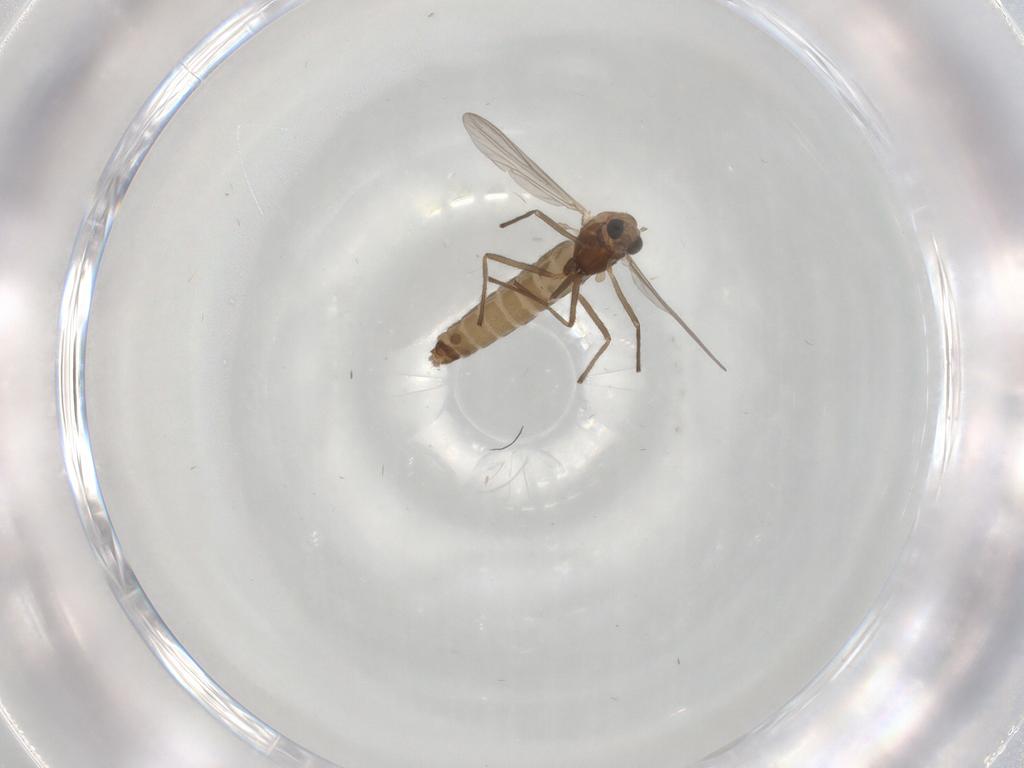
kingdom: Animalia
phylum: Arthropoda
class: Insecta
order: Diptera
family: Chironomidae
